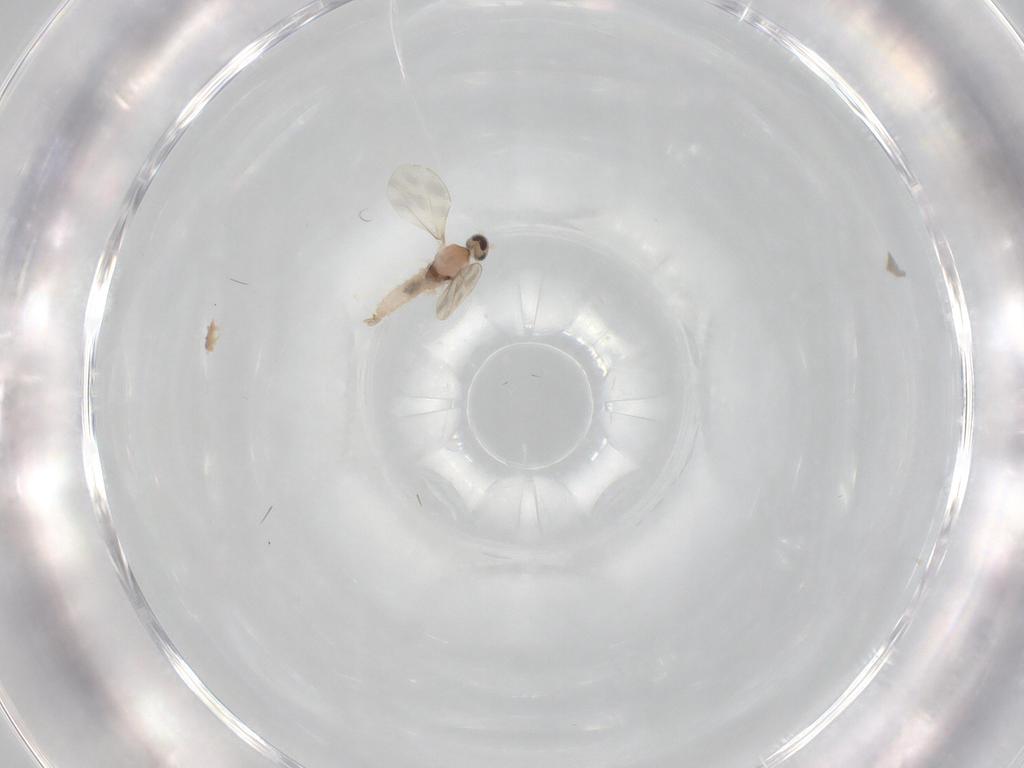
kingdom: Animalia
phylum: Arthropoda
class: Insecta
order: Diptera
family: Cecidomyiidae
